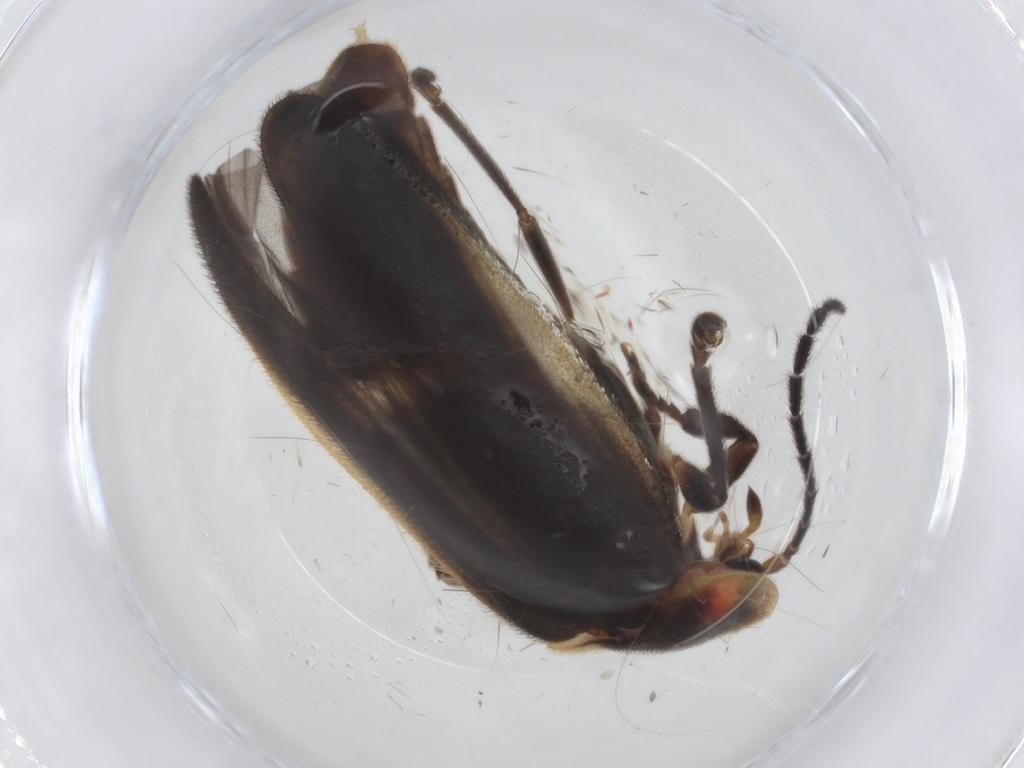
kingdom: Animalia
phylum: Arthropoda
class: Insecta
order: Coleoptera
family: Lampyridae
